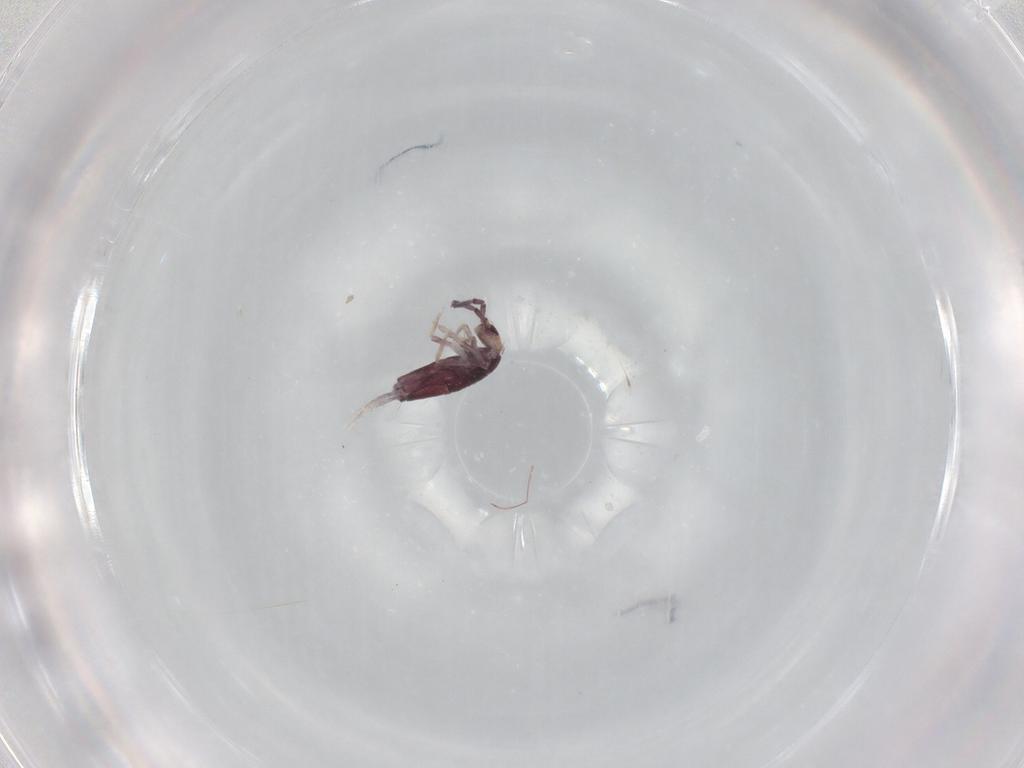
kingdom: Animalia
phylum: Arthropoda
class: Collembola
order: Entomobryomorpha
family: Entomobryidae
